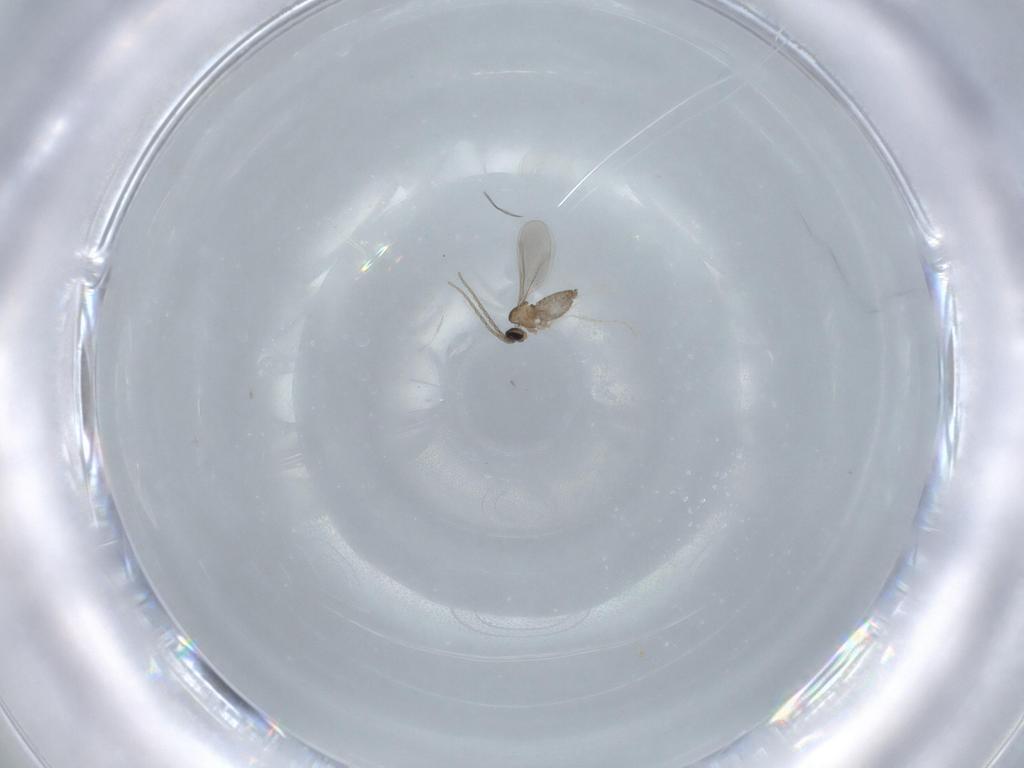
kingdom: Animalia
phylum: Arthropoda
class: Insecta
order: Diptera
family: Cecidomyiidae
